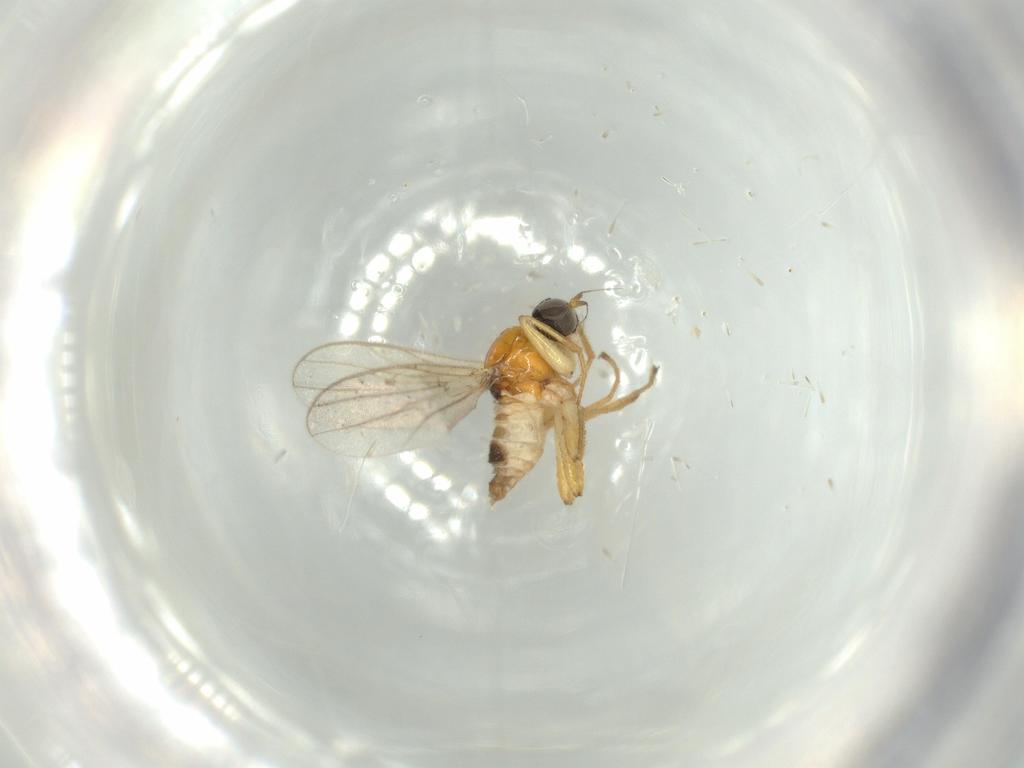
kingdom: Animalia
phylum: Arthropoda
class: Insecta
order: Diptera
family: Hybotidae
